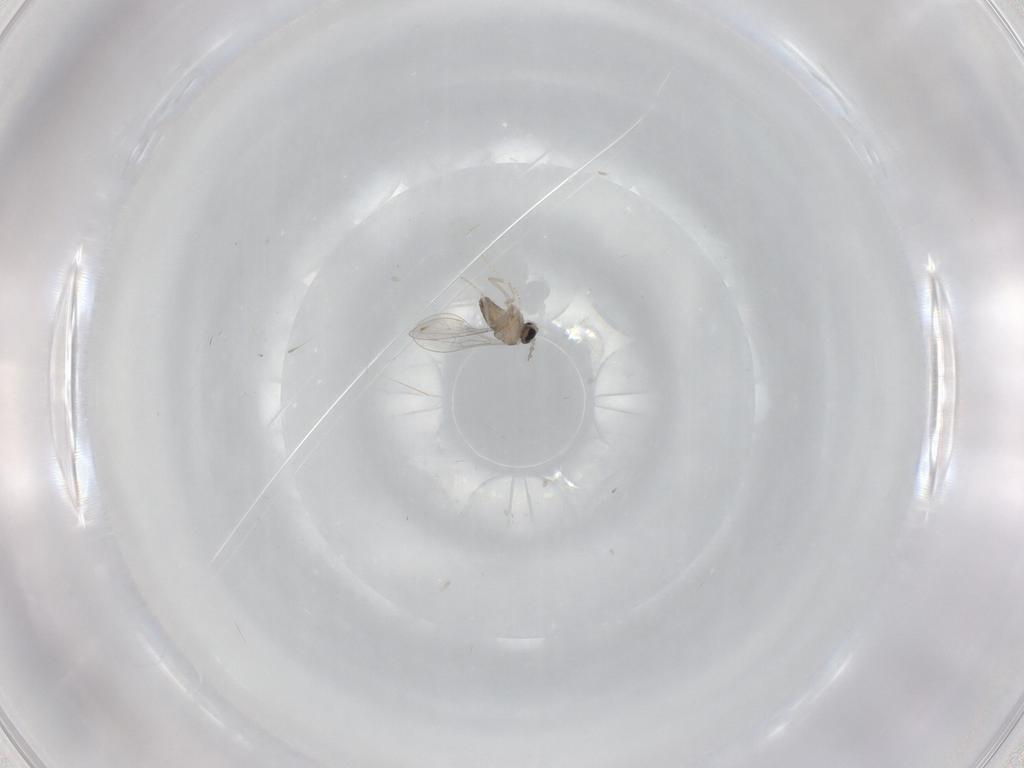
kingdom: Animalia
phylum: Arthropoda
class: Insecta
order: Diptera
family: Cecidomyiidae
